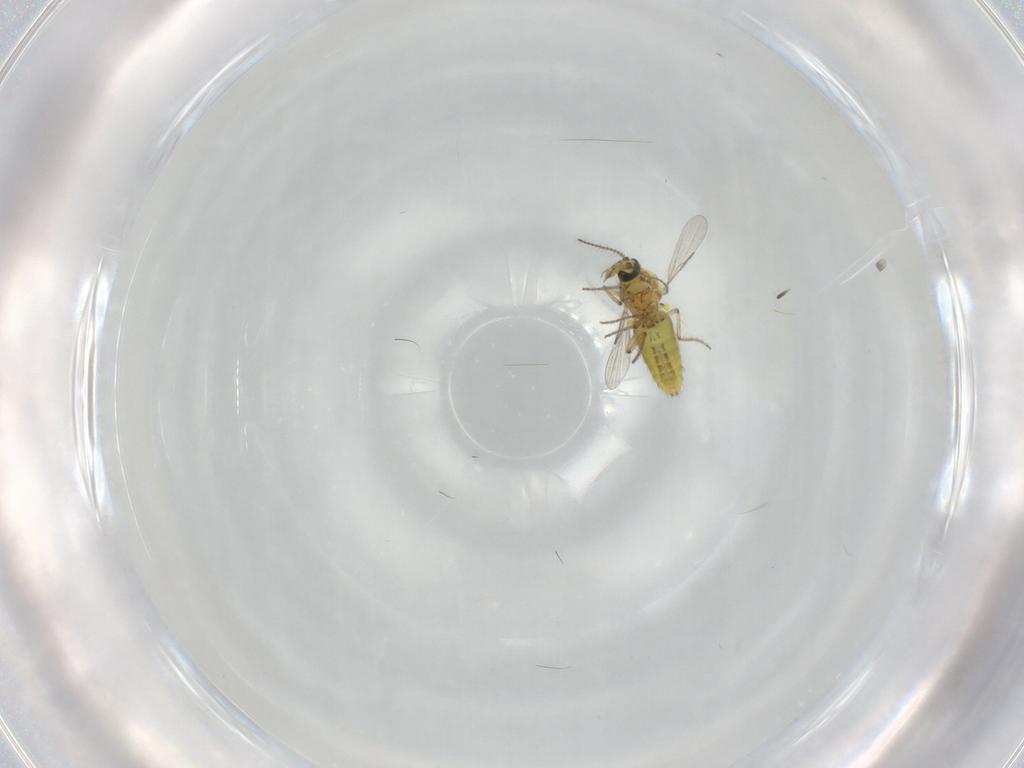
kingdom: Animalia
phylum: Arthropoda
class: Insecta
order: Diptera
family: Ceratopogonidae
